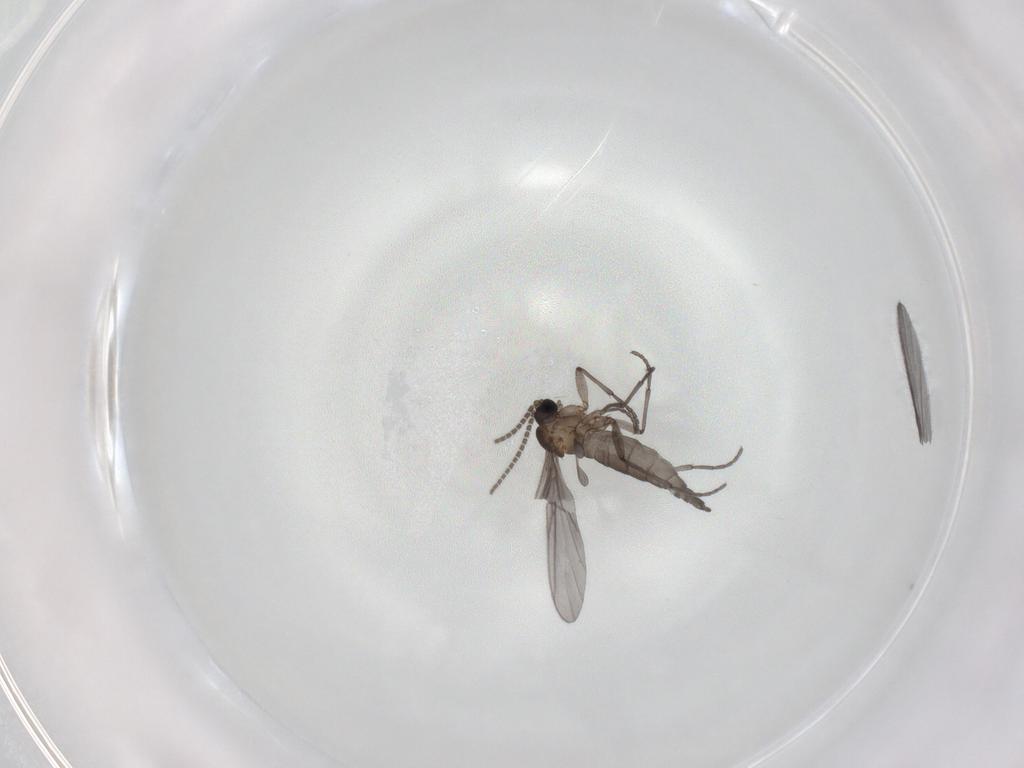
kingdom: Animalia
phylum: Arthropoda
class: Insecta
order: Diptera
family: Sciaridae
